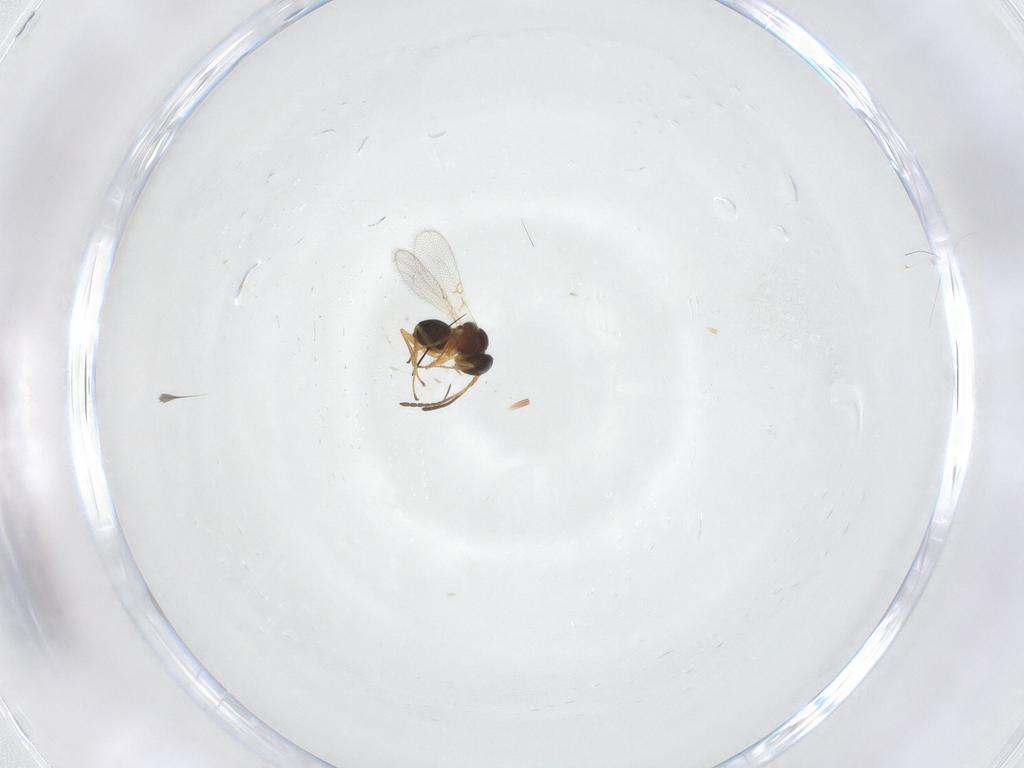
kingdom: Animalia
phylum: Arthropoda
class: Insecta
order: Hymenoptera
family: Figitidae
